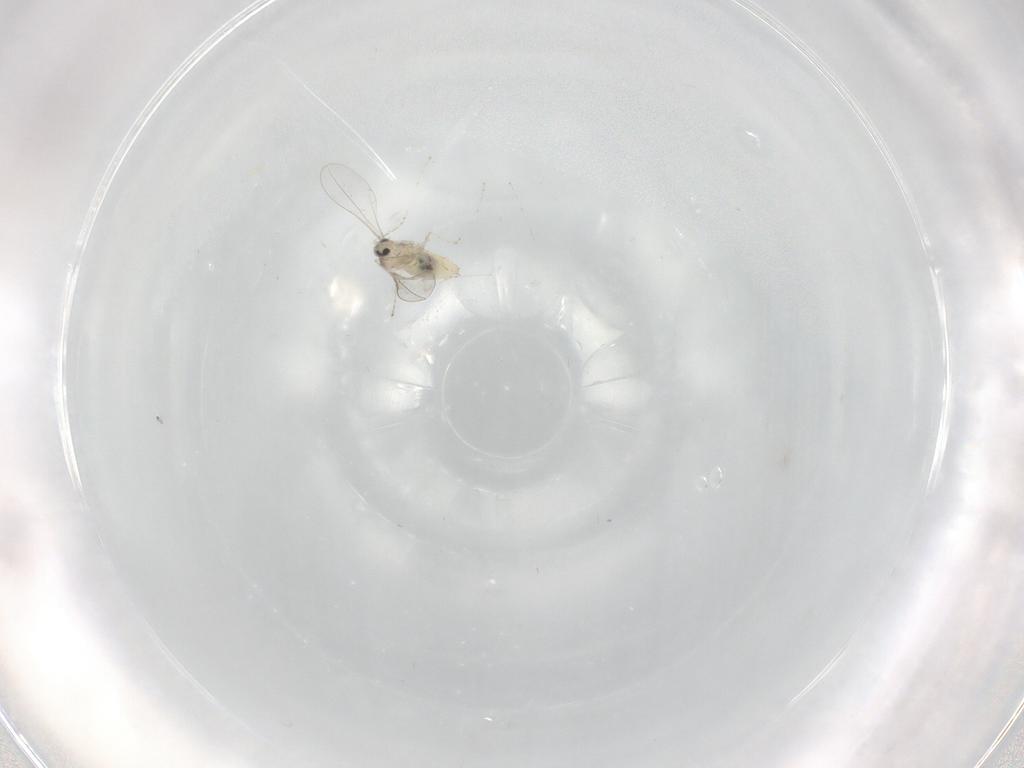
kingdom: Animalia
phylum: Arthropoda
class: Insecta
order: Diptera
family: Cecidomyiidae
